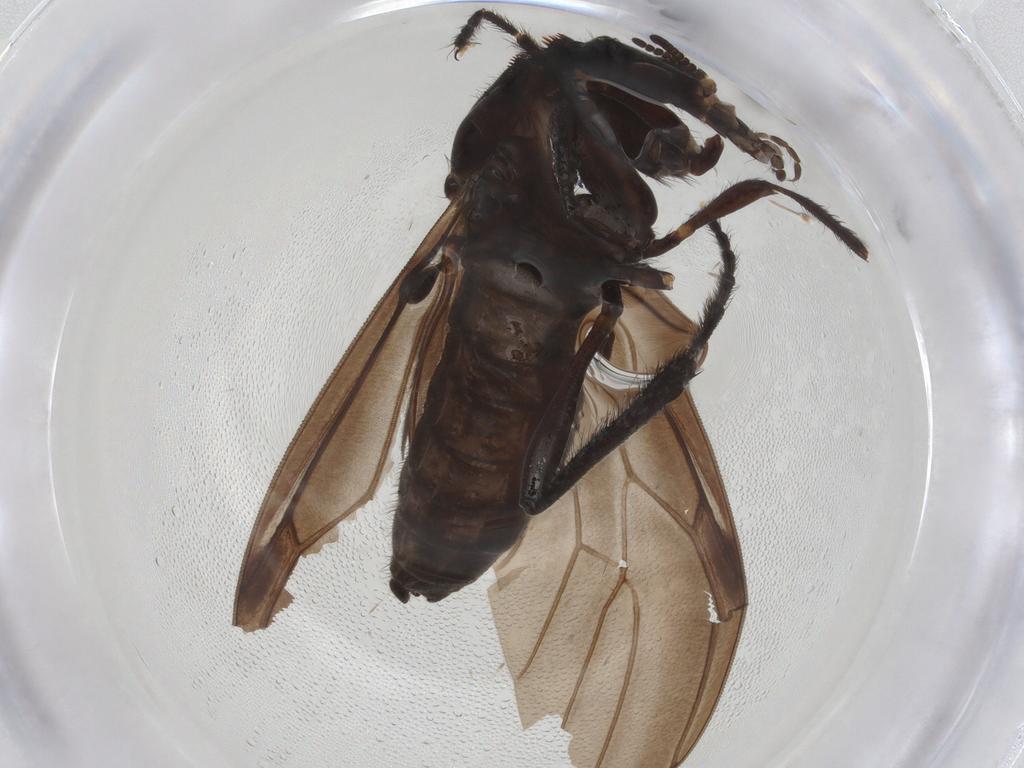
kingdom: Animalia
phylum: Arthropoda
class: Insecta
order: Diptera
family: Bibionidae
